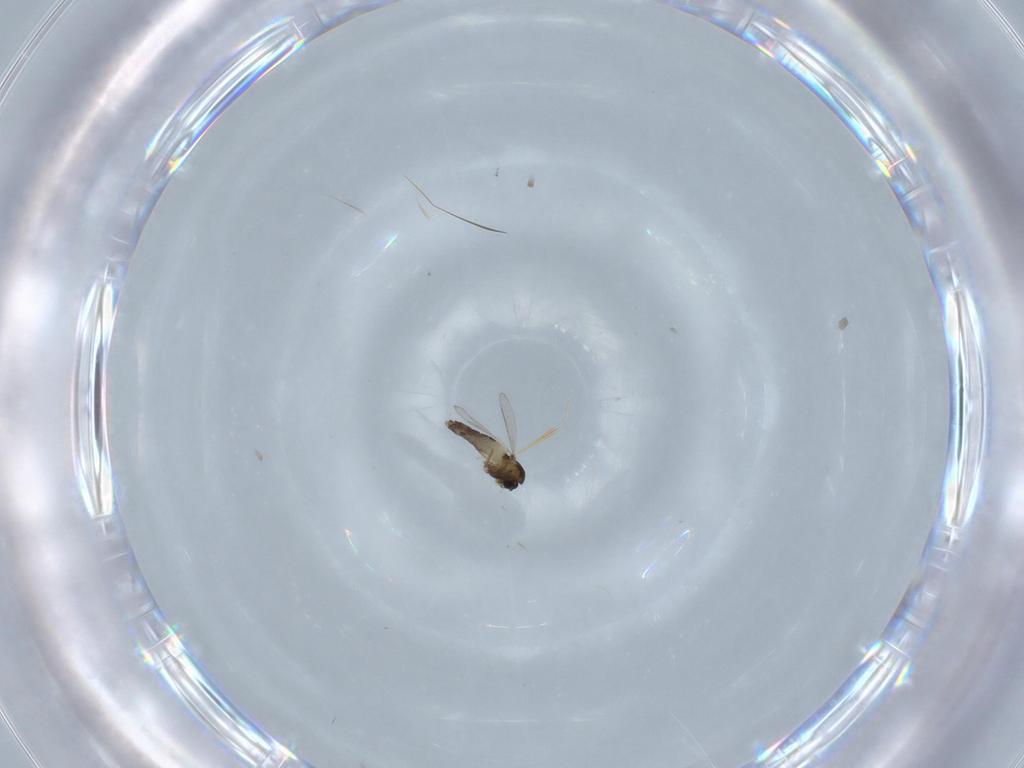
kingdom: Animalia
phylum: Arthropoda
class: Insecta
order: Diptera
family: Chironomidae
